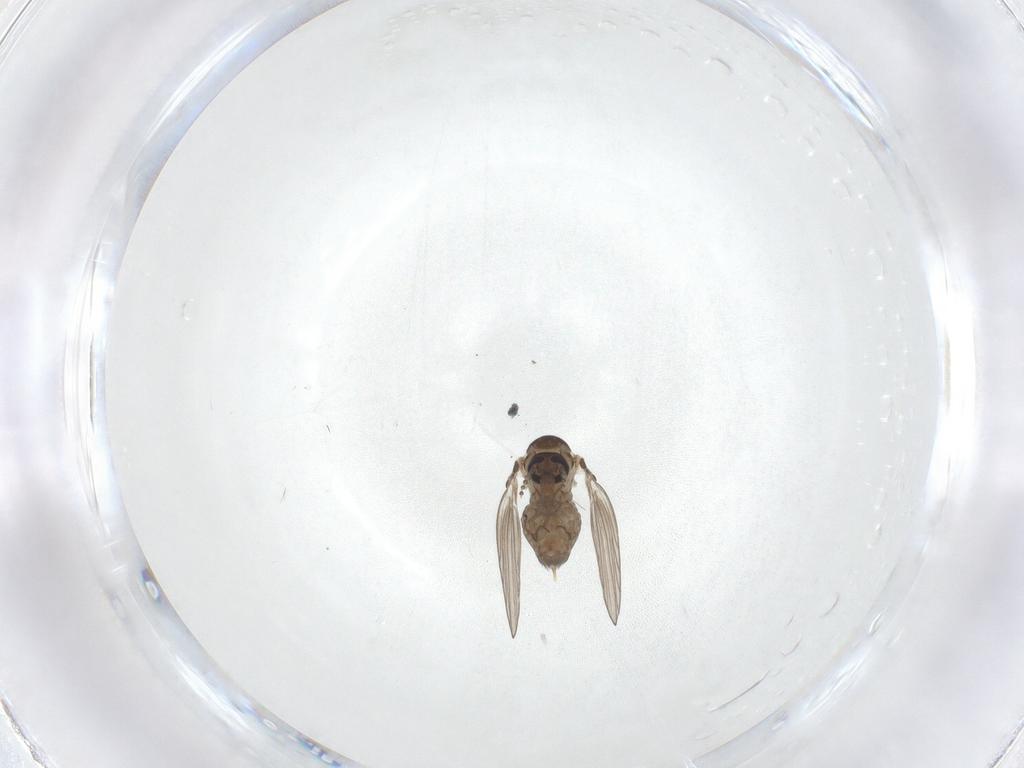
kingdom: Animalia
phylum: Arthropoda
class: Insecta
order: Diptera
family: Psychodidae
